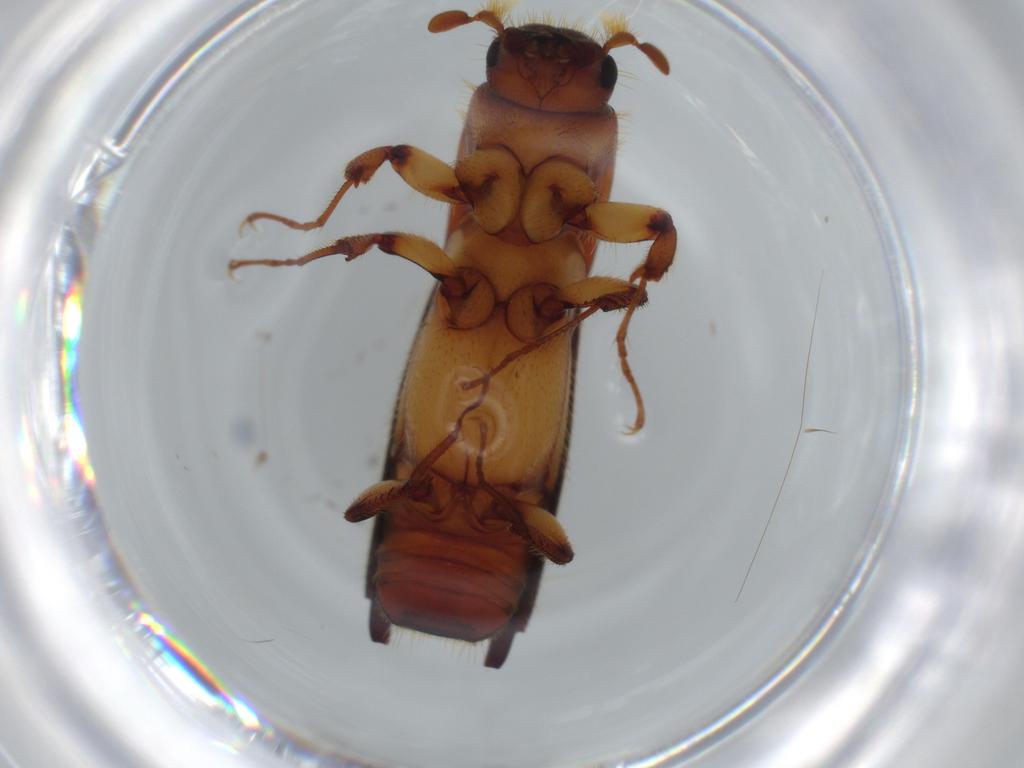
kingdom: Animalia
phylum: Arthropoda
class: Insecta
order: Coleoptera
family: Curculionidae
